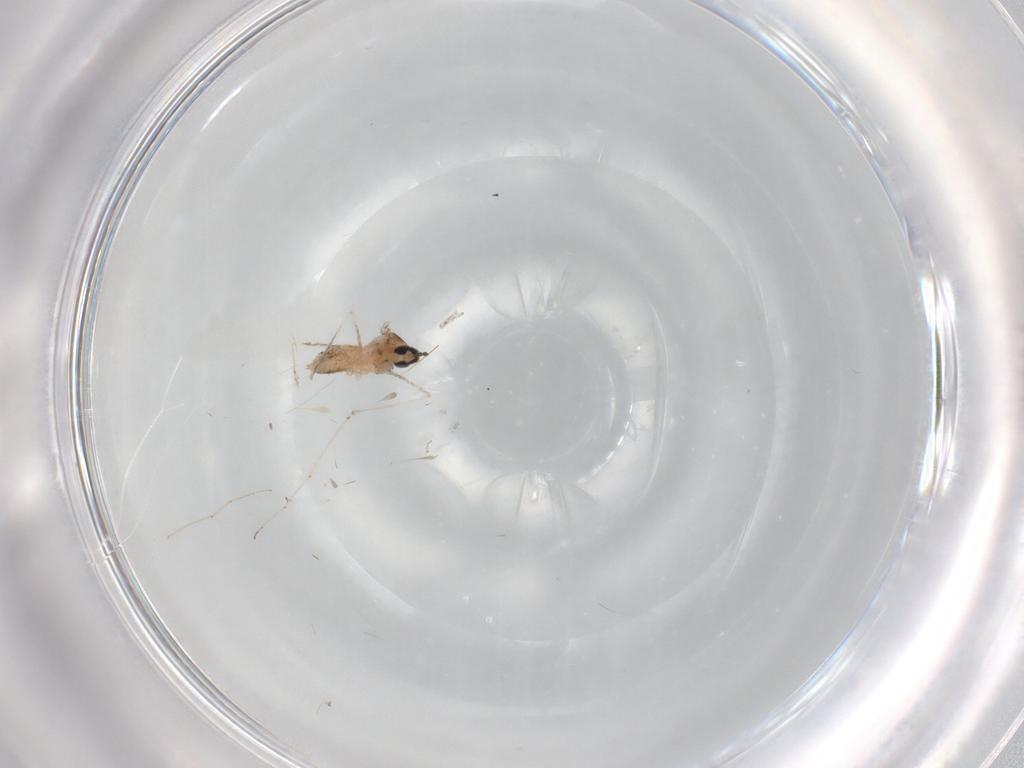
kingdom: Animalia
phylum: Arthropoda
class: Insecta
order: Diptera
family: Cecidomyiidae
